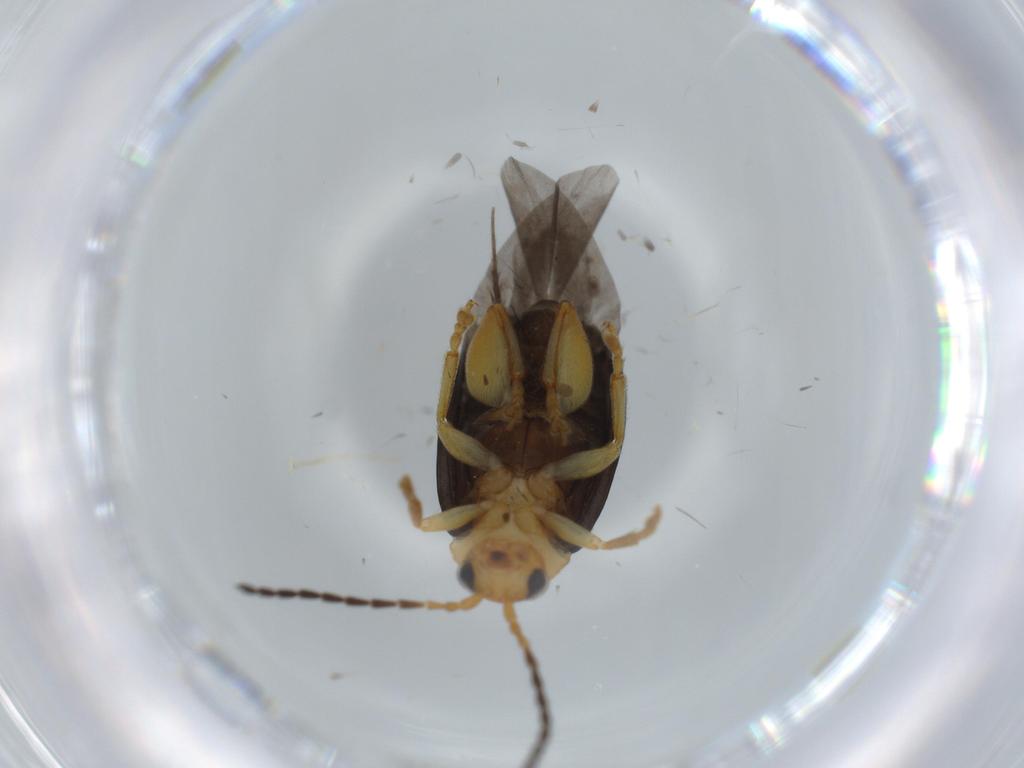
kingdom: Animalia
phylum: Arthropoda
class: Insecta
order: Coleoptera
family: Chrysomelidae
